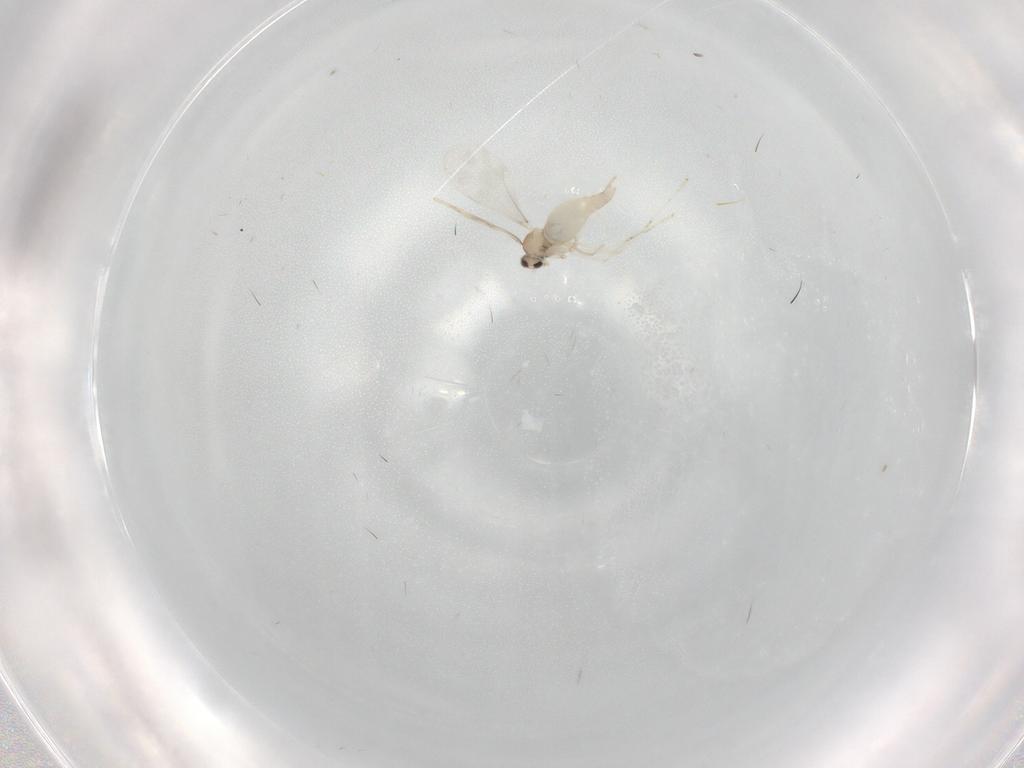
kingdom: Animalia
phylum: Arthropoda
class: Insecta
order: Diptera
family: Cecidomyiidae
